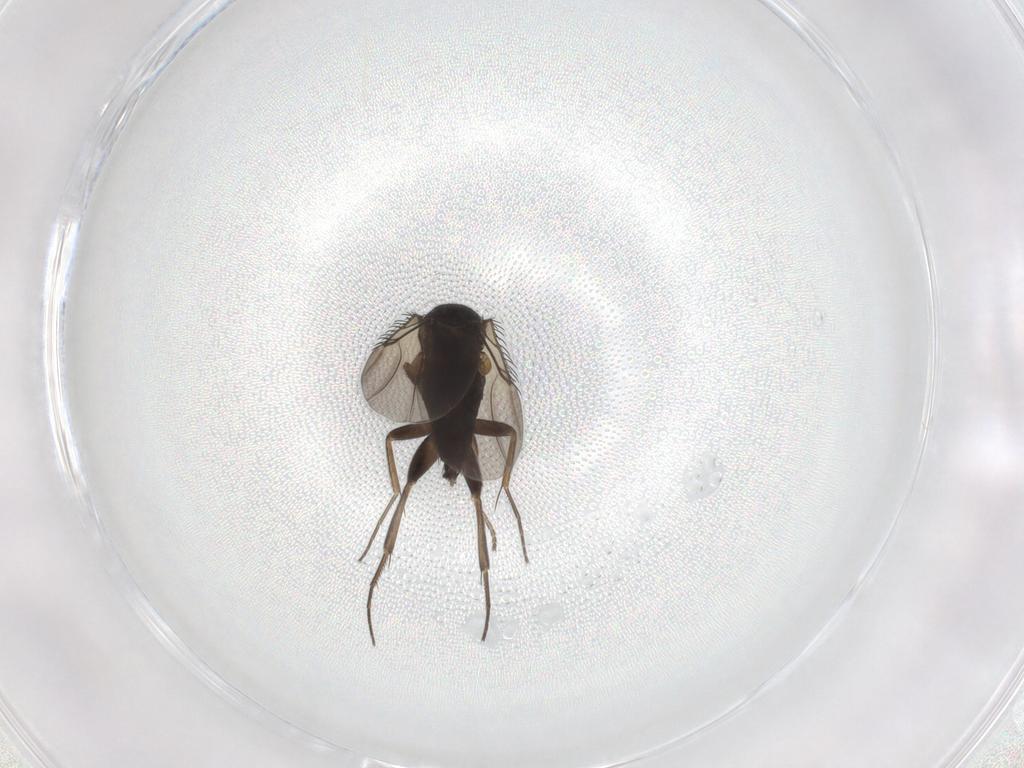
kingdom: Animalia
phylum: Arthropoda
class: Insecta
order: Diptera
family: Phoridae
